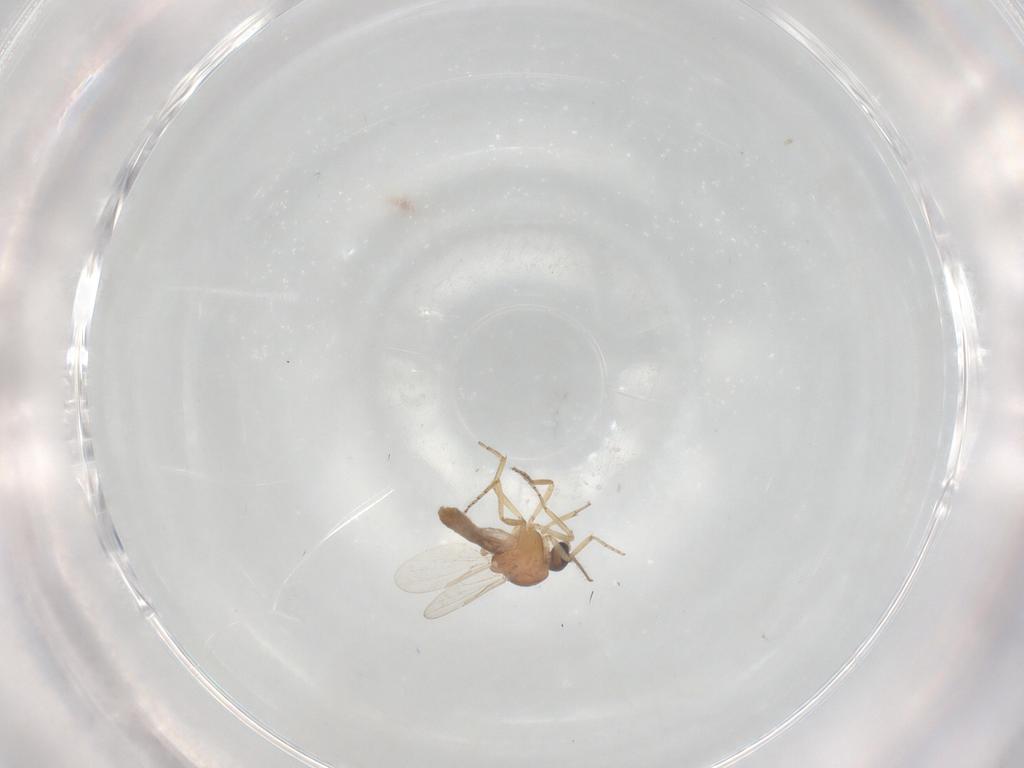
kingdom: Animalia
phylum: Arthropoda
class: Insecta
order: Diptera
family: Ceratopogonidae
